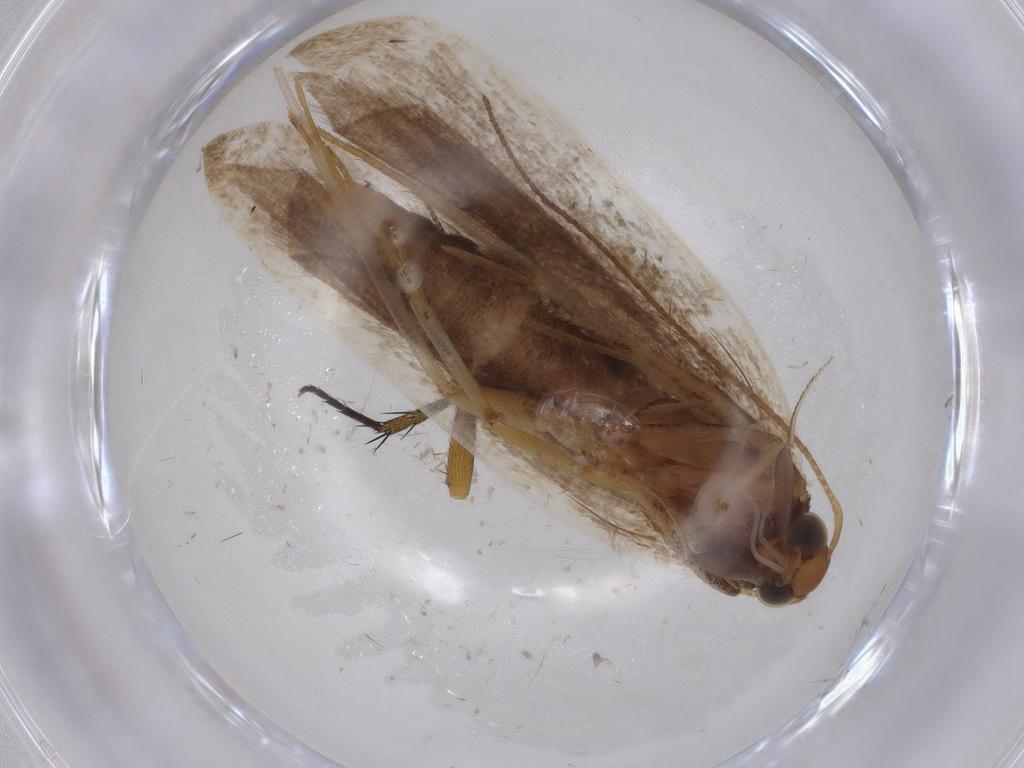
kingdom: Animalia
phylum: Arthropoda
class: Insecta
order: Lepidoptera
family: Gelechiidae
